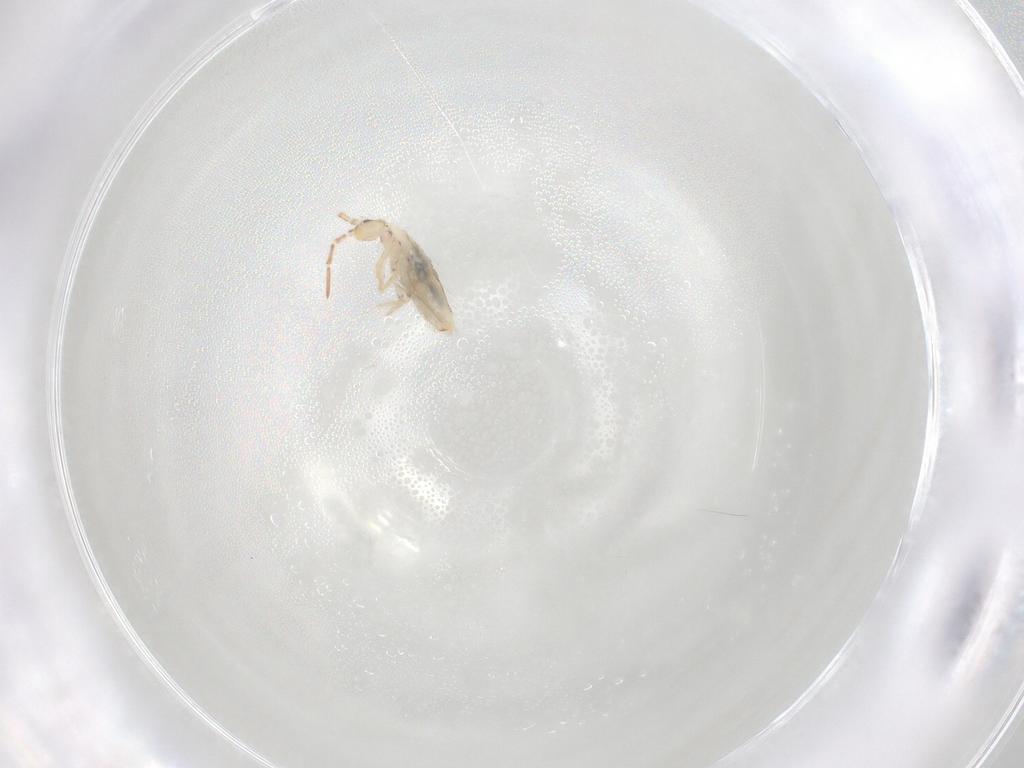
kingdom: Animalia
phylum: Arthropoda
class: Collembola
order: Entomobryomorpha
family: Entomobryidae
